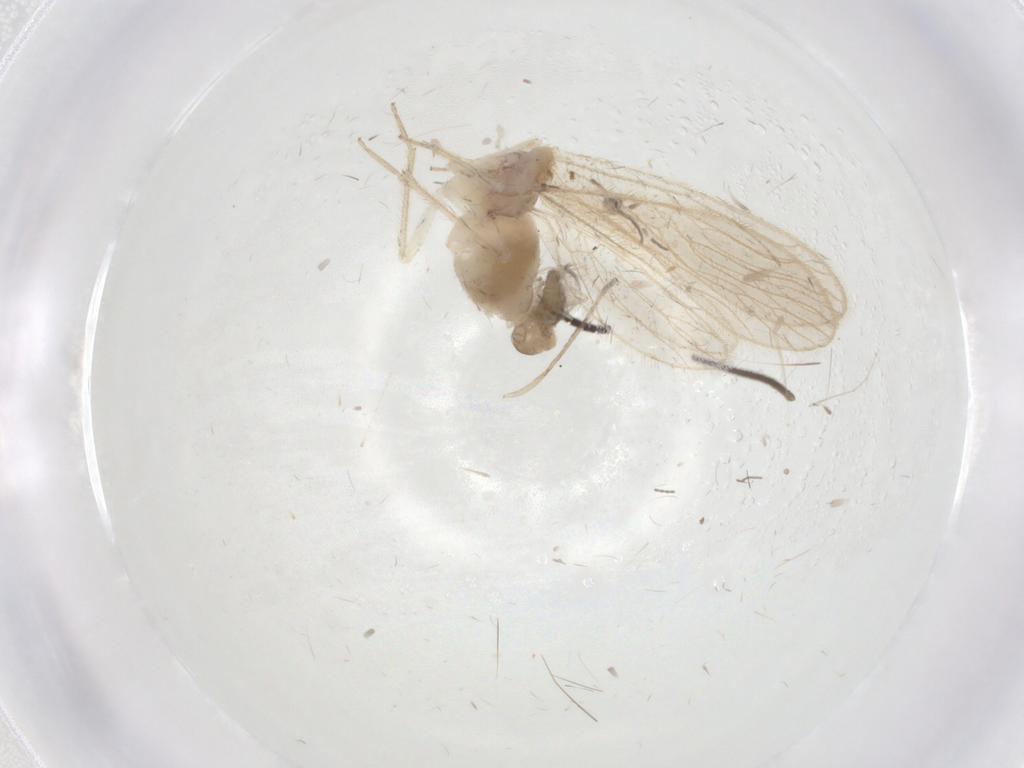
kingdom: Animalia
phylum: Arthropoda
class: Insecta
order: Psocodea
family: Cladiopsocidae
